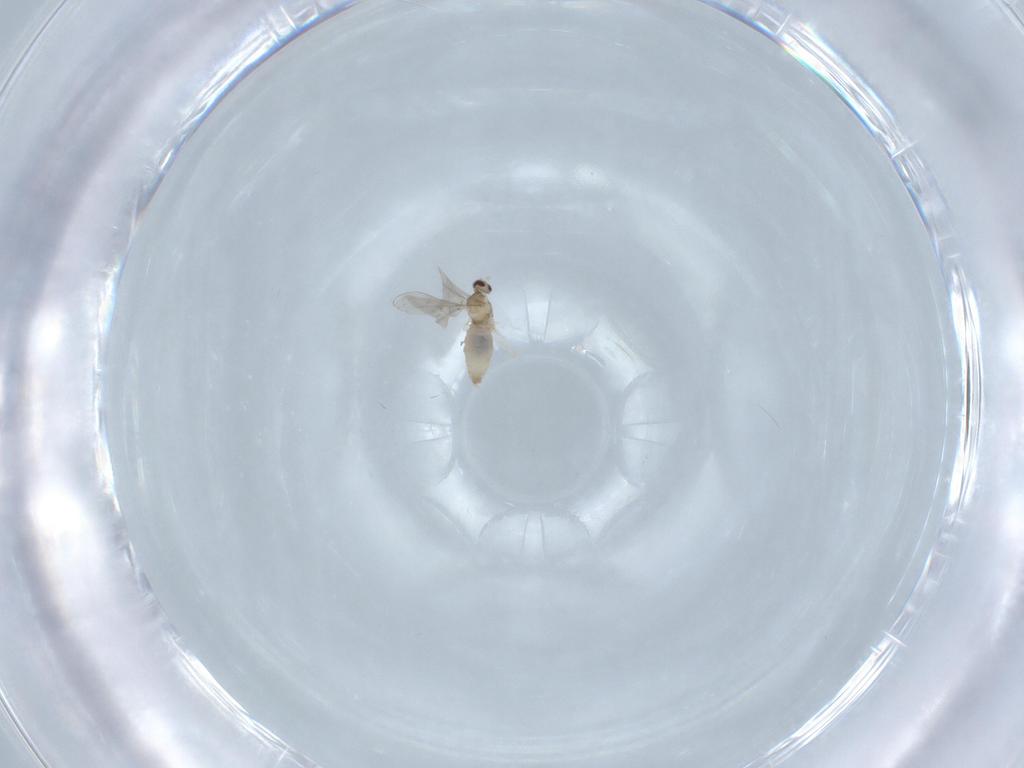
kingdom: Animalia
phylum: Arthropoda
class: Insecta
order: Diptera
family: Cecidomyiidae
